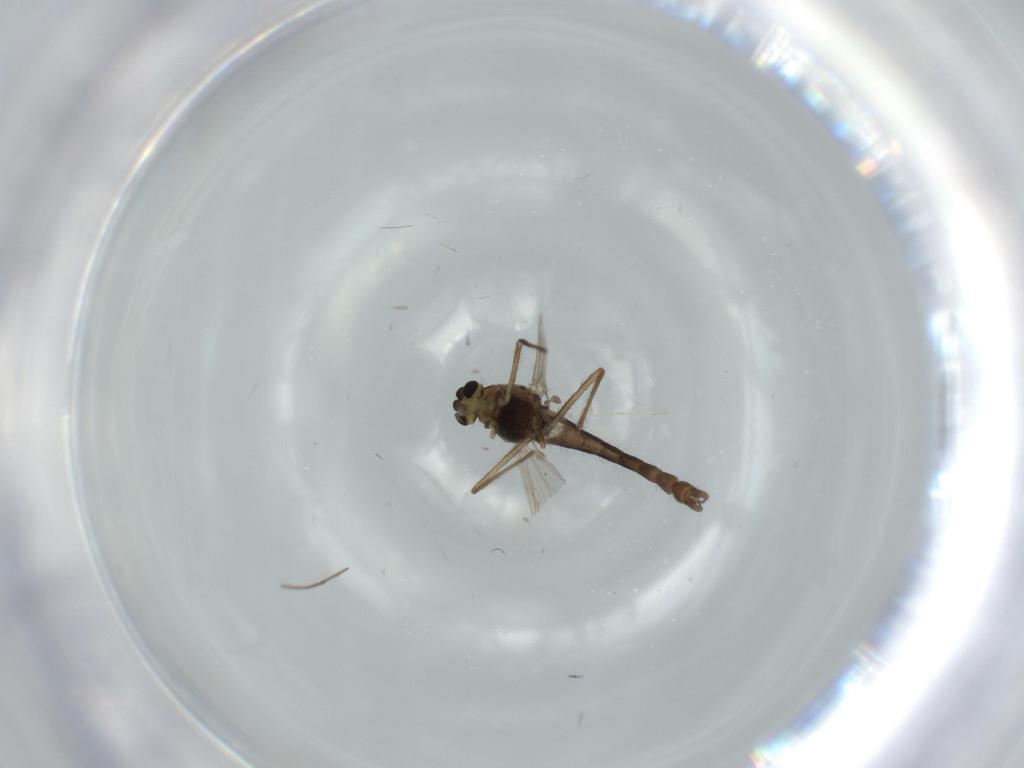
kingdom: Animalia
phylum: Arthropoda
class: Insecta
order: Diptera
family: Chironomidae
